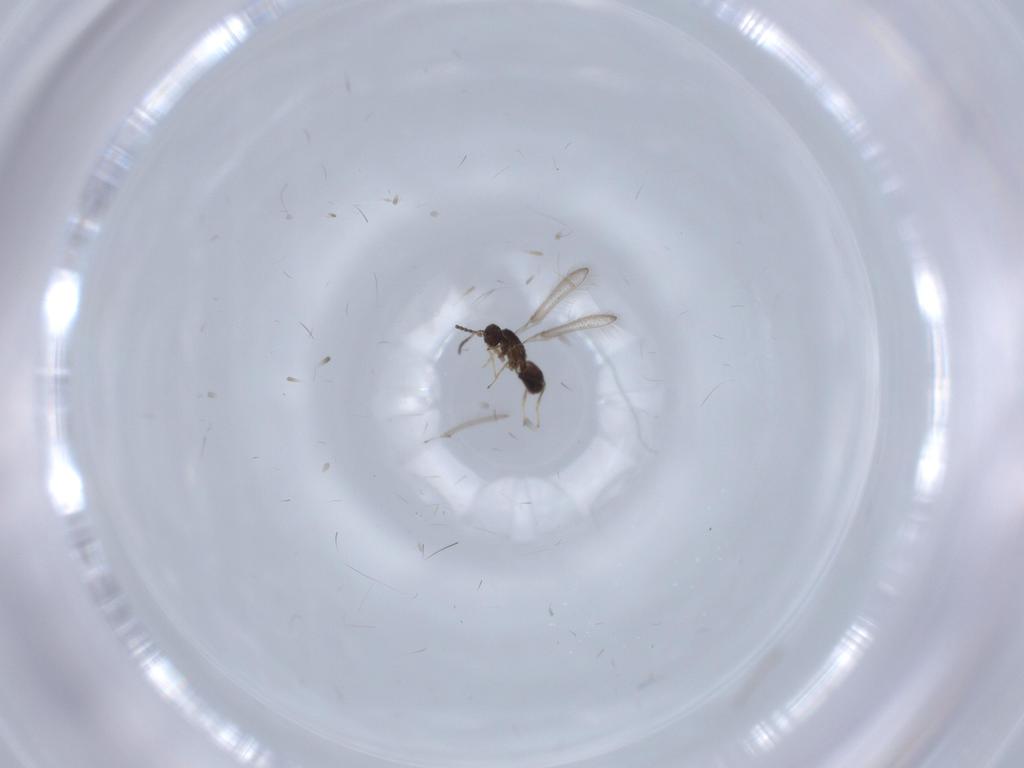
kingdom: Animalia
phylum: Arthropoda
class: Insecta
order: Hymenoptera
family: Mymaridae
